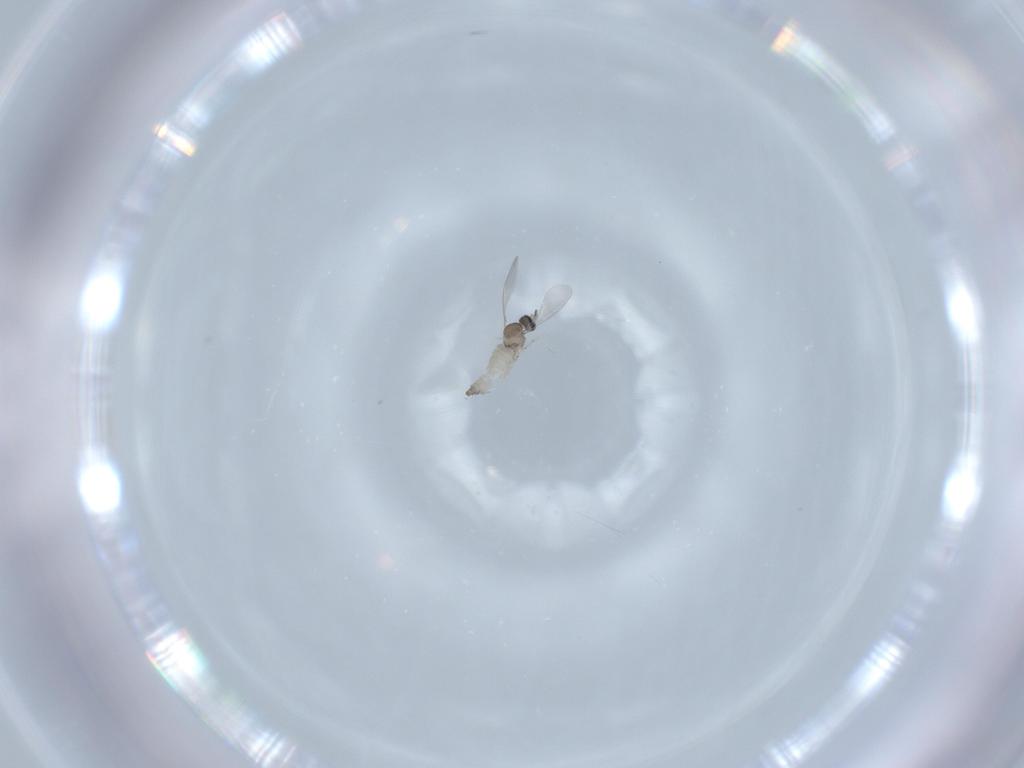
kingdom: Animalia
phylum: Arthropoda
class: Insecta
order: Diptera
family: Cecidomyiidae
